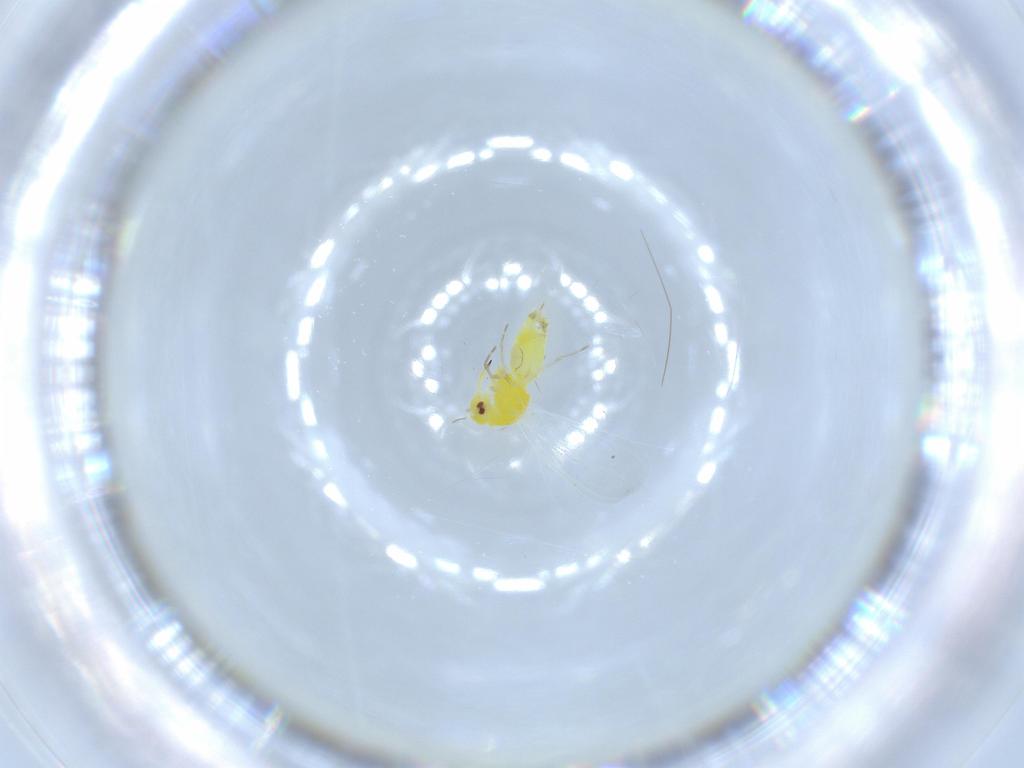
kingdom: Animalia
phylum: Arthropoda
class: Insecta
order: Hemiptera
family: Aleyrodidae
